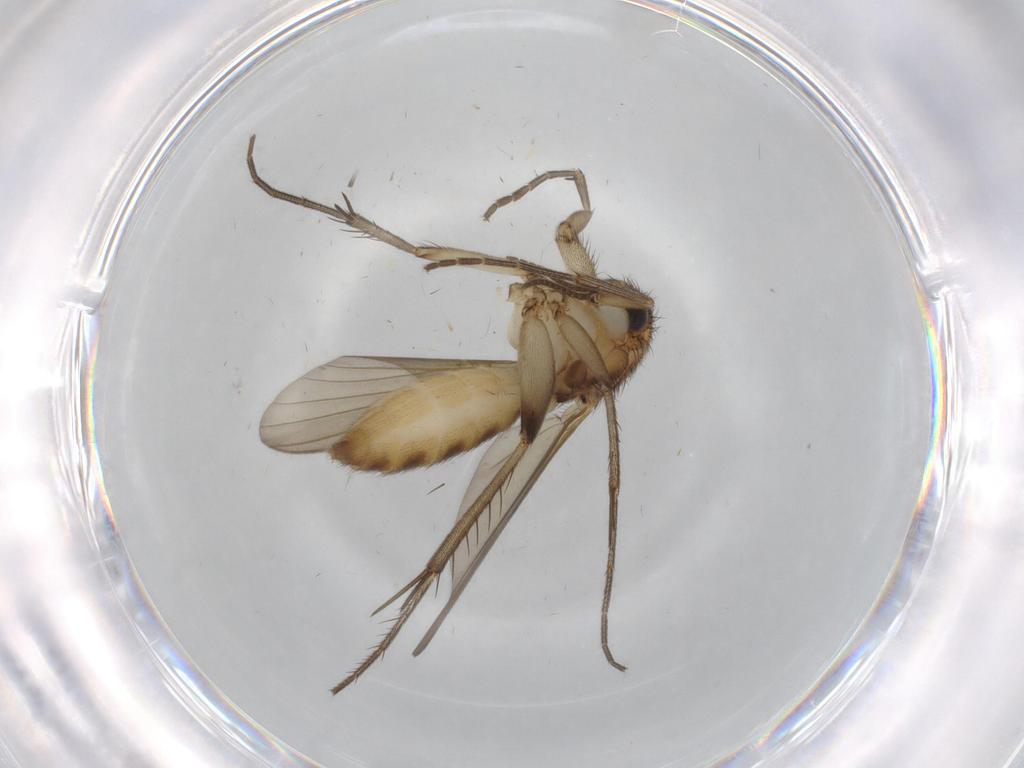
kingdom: Animalia
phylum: Arthropoda
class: Insecta
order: Diptera
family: Mycetophilidae
